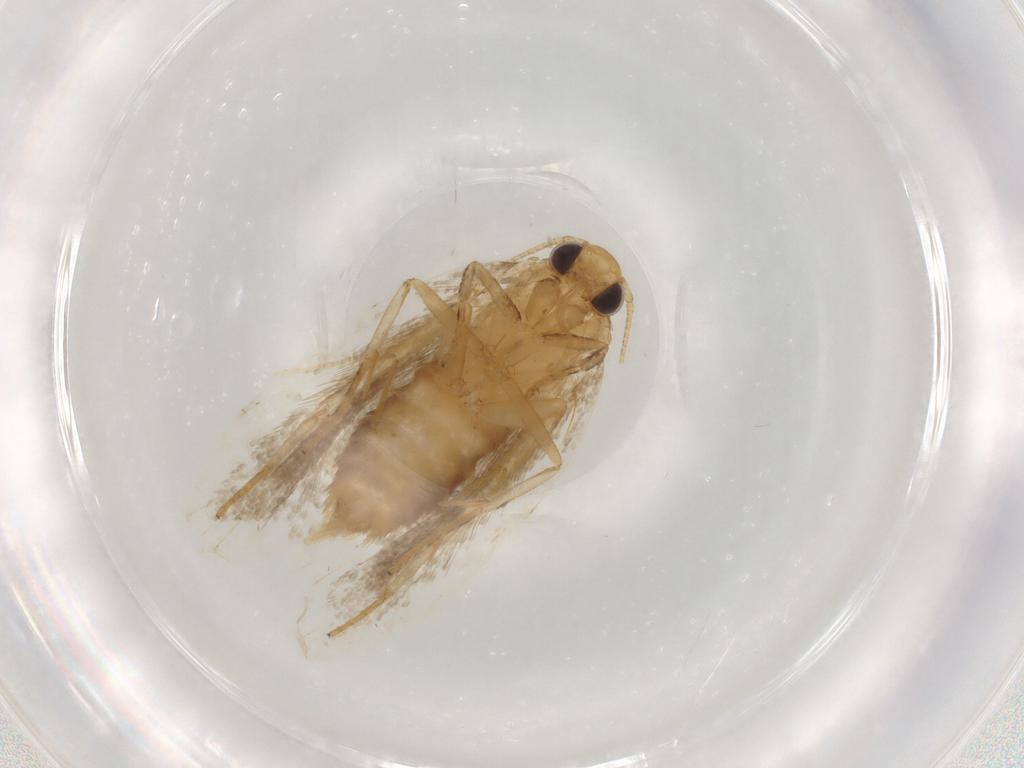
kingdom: Animalia
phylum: Arthropoda
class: Insecta
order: Lepidoptera
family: Depressariidae
